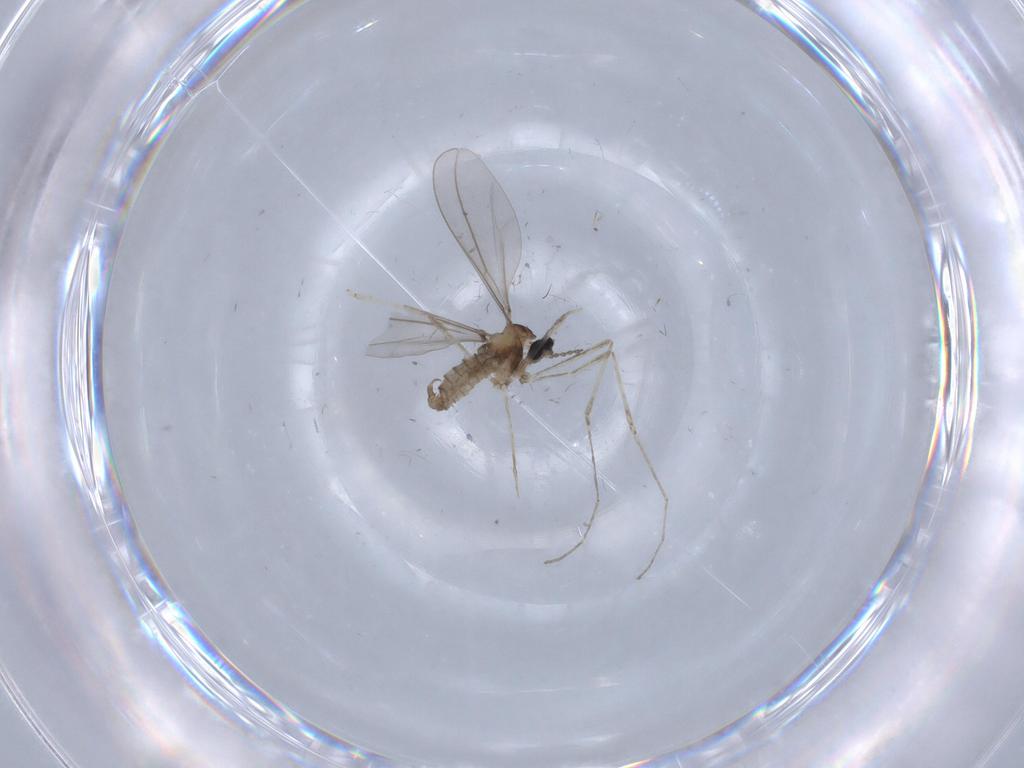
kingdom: Animalia
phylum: Arthropoda
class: Insecta
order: Diptera
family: Cecidomyiidae
